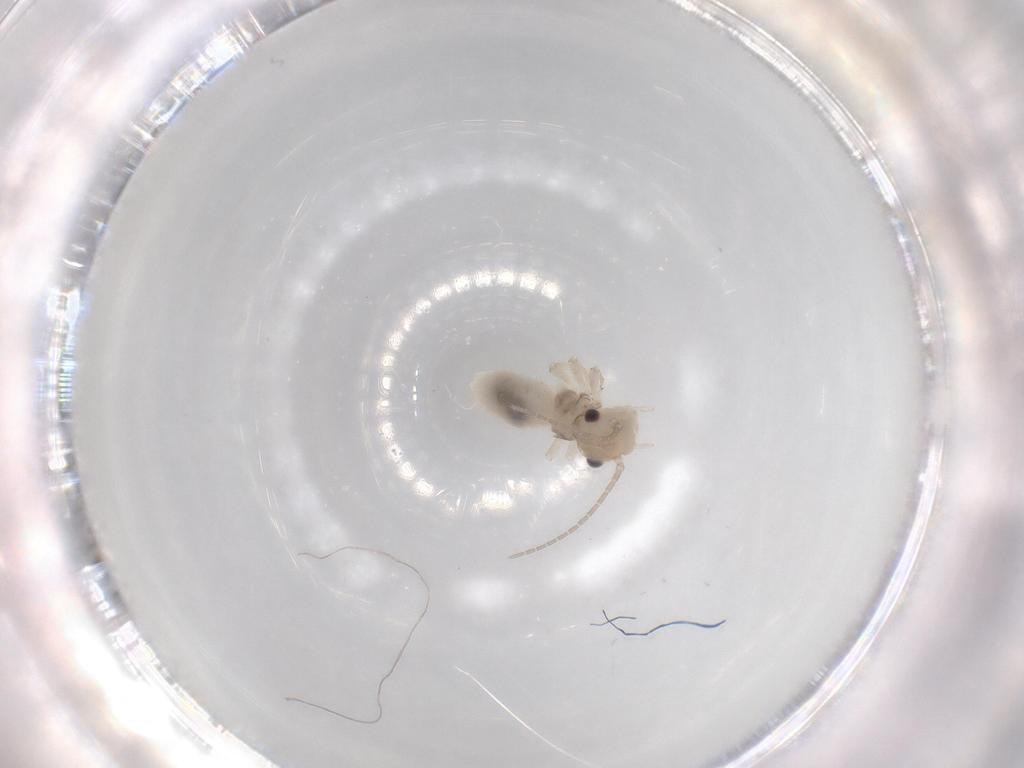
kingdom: Animalia
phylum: Arthropoda
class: Insecta
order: Psocodea
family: Amphipsocidae
